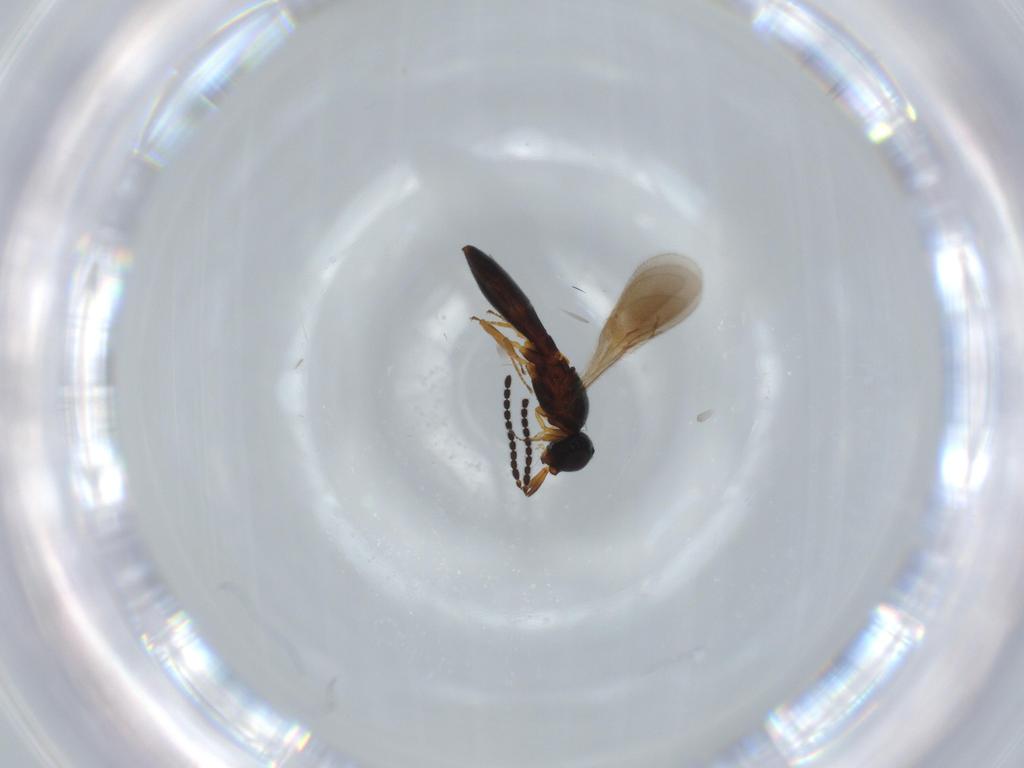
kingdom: Animalia
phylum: Arthropoda
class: Insecta
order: Hymenoptera
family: Scelionidae
